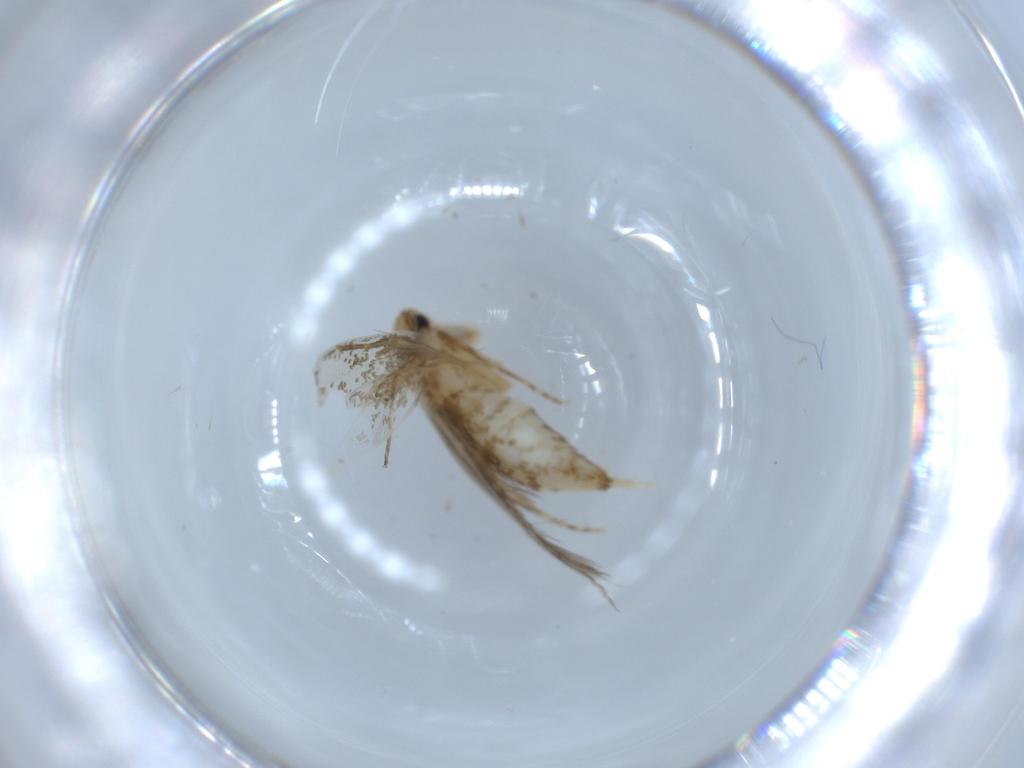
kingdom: Animalia
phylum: Arthropoda
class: Insecta
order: Lepidoptera
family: Tineidae
